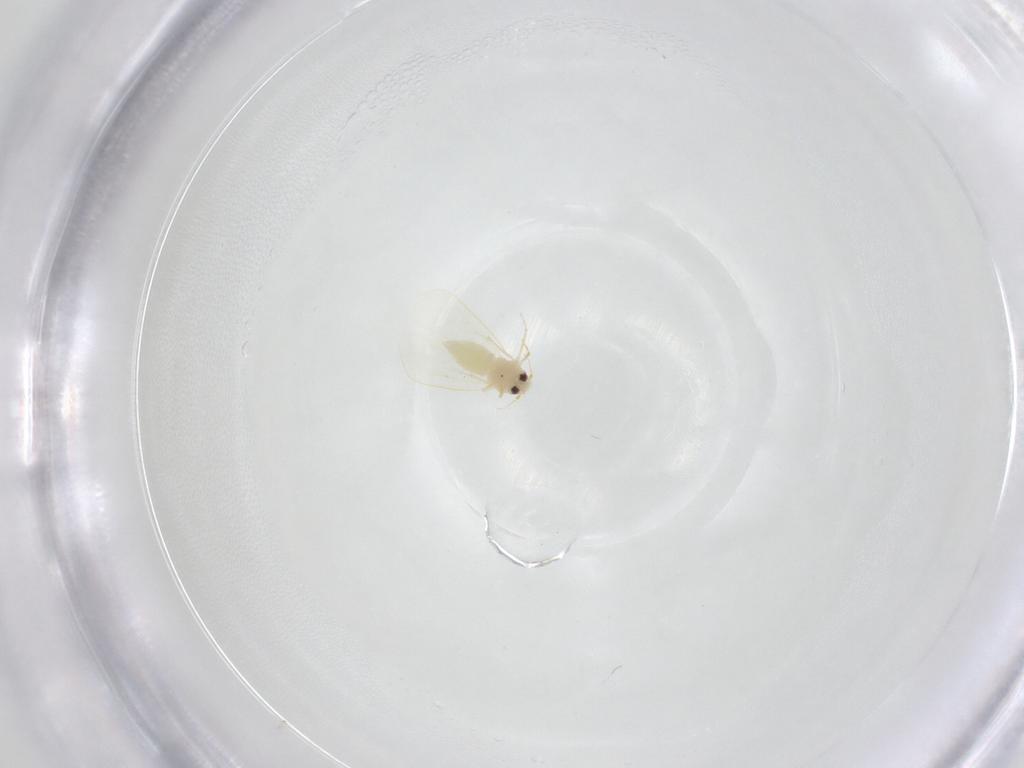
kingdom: Animalia
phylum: Arthropoda
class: Insecta
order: Hemiptera
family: Aleyrodidae
